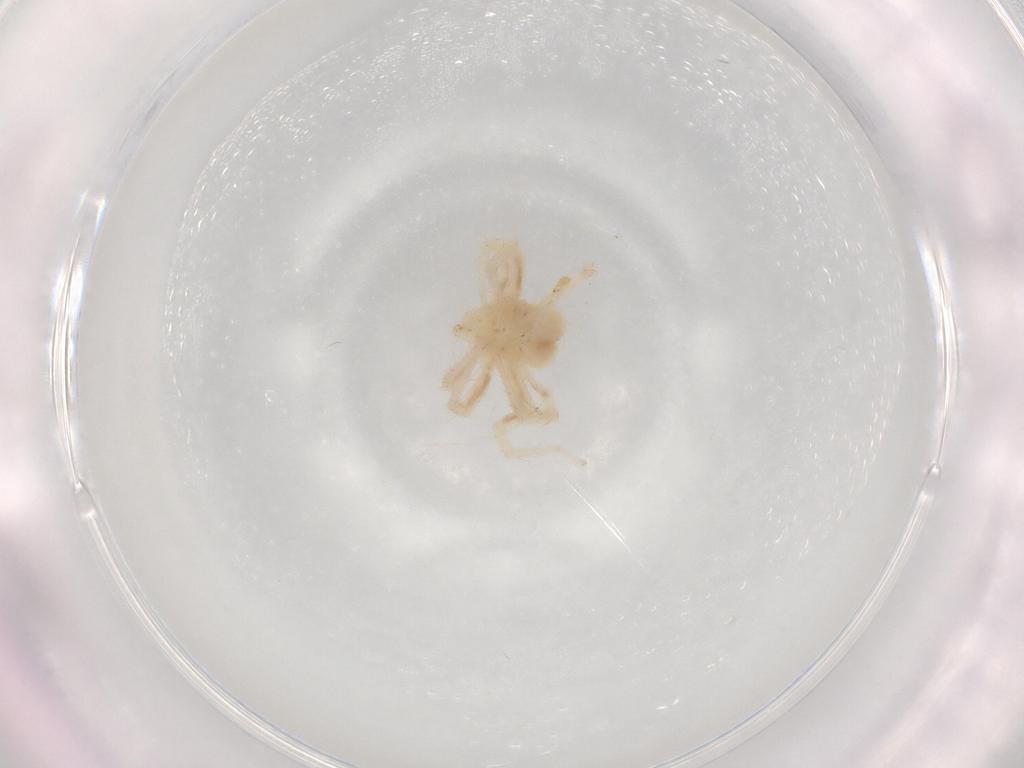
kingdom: Animalia
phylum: Arthropoda
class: Arachnida
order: Trombidiformes
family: Anystidae
